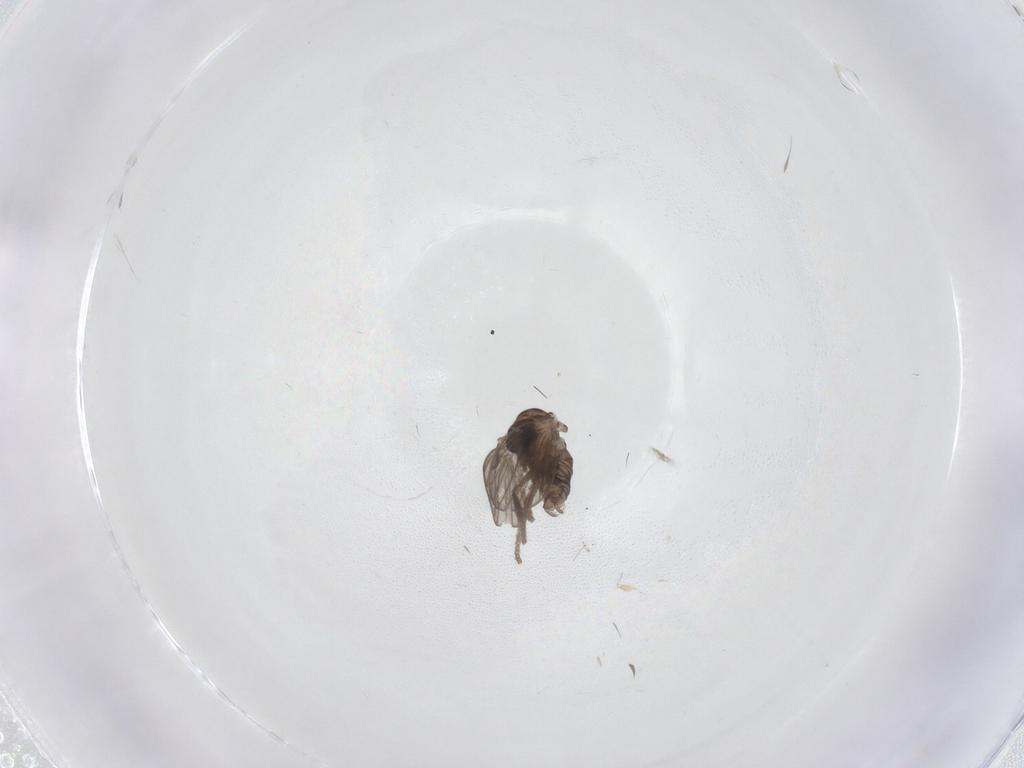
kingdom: Animalia
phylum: Arthropoda
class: Insecta
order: Diptera
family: Psychodidae
